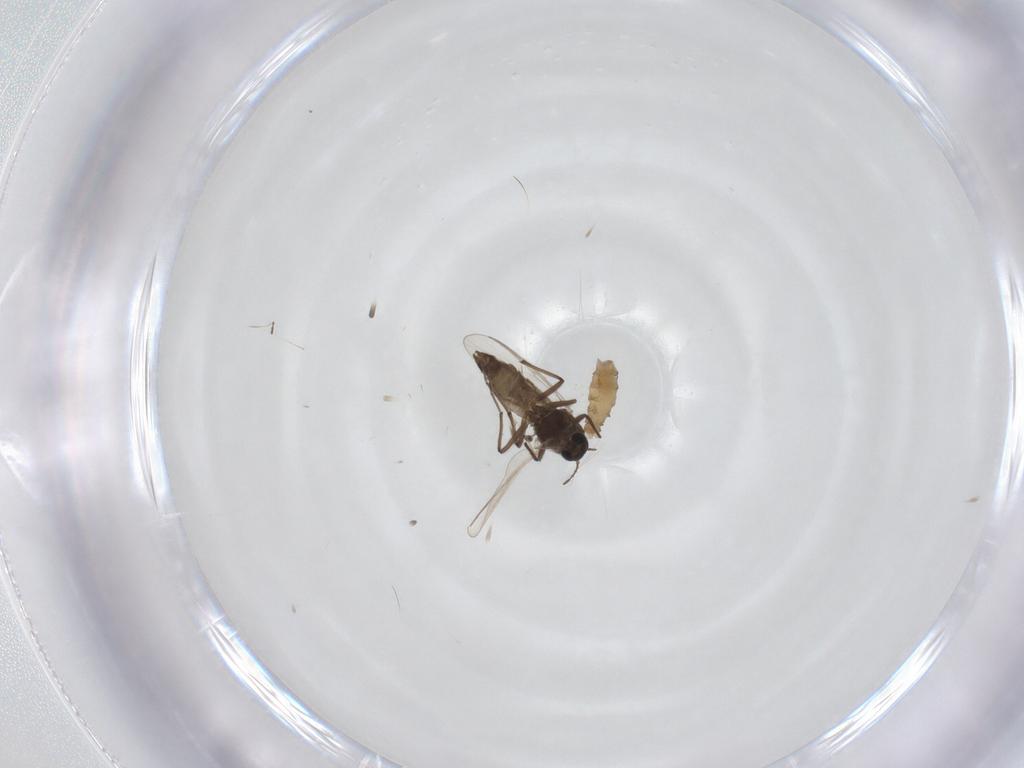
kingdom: Animalia
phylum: Arthropoda
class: Insecta
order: Diptera
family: Chironomidae
